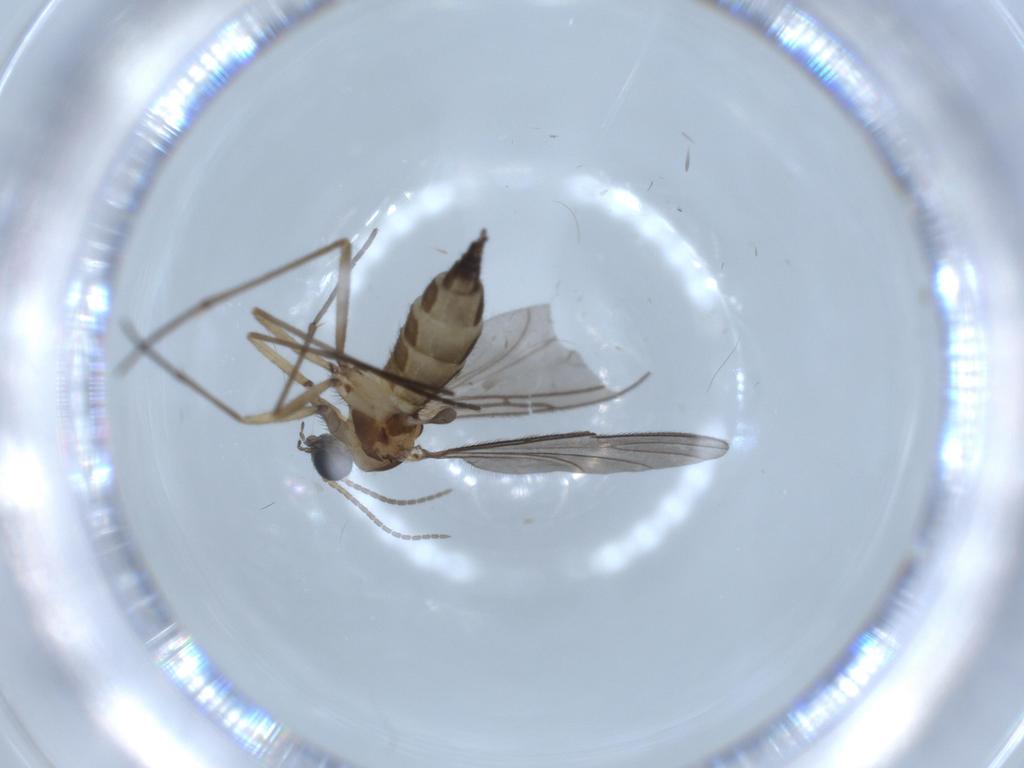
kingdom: Animalia
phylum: Arthropoda
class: Insecta
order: Diptera
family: Sciaridae
